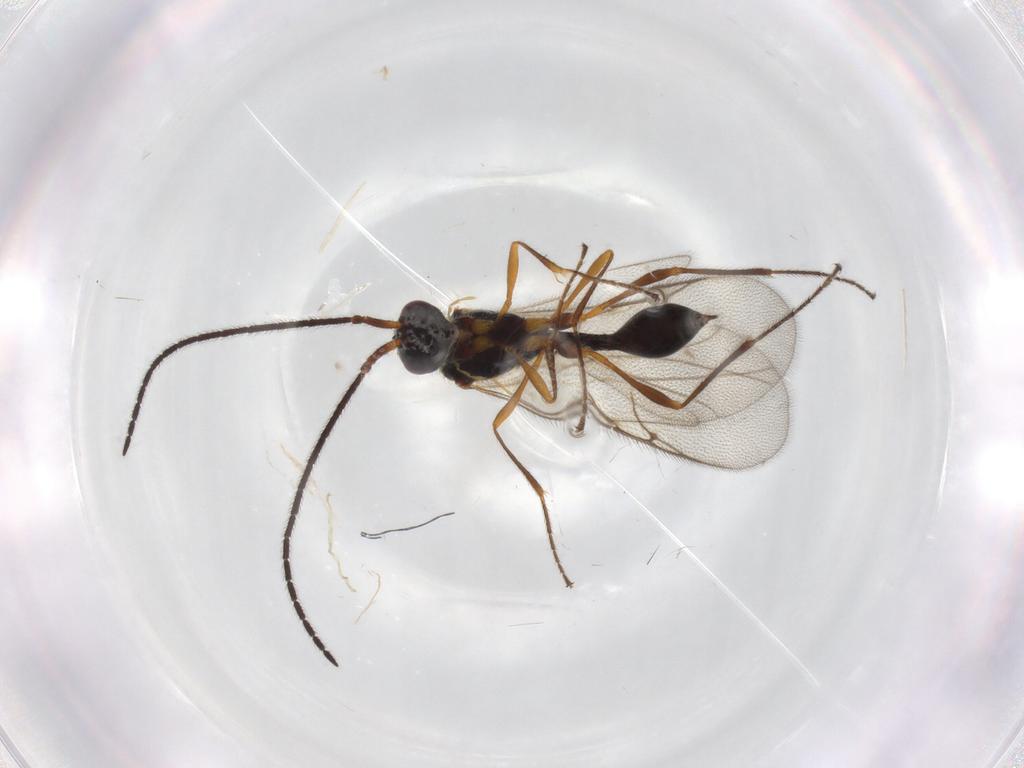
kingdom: Animalia
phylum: Arthropoda
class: Insecta
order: Hymenoptera
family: Diapriidae
